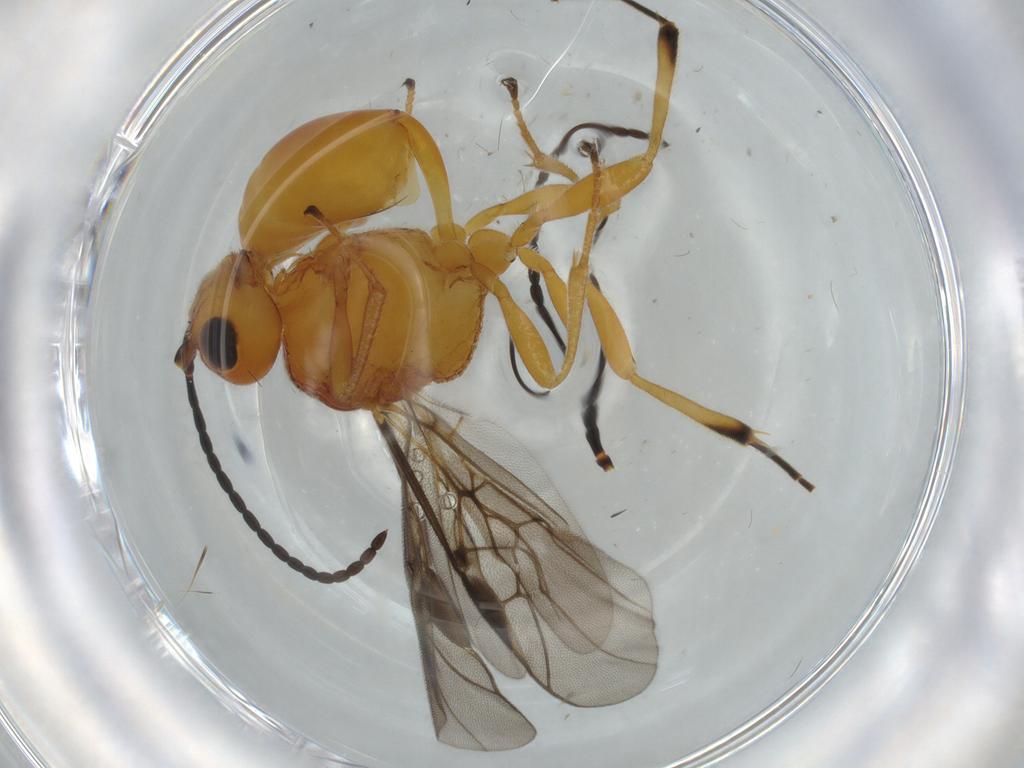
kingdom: Animalia
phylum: Arthropoda
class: Insecta
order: Hymenoptera
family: Braconidae
